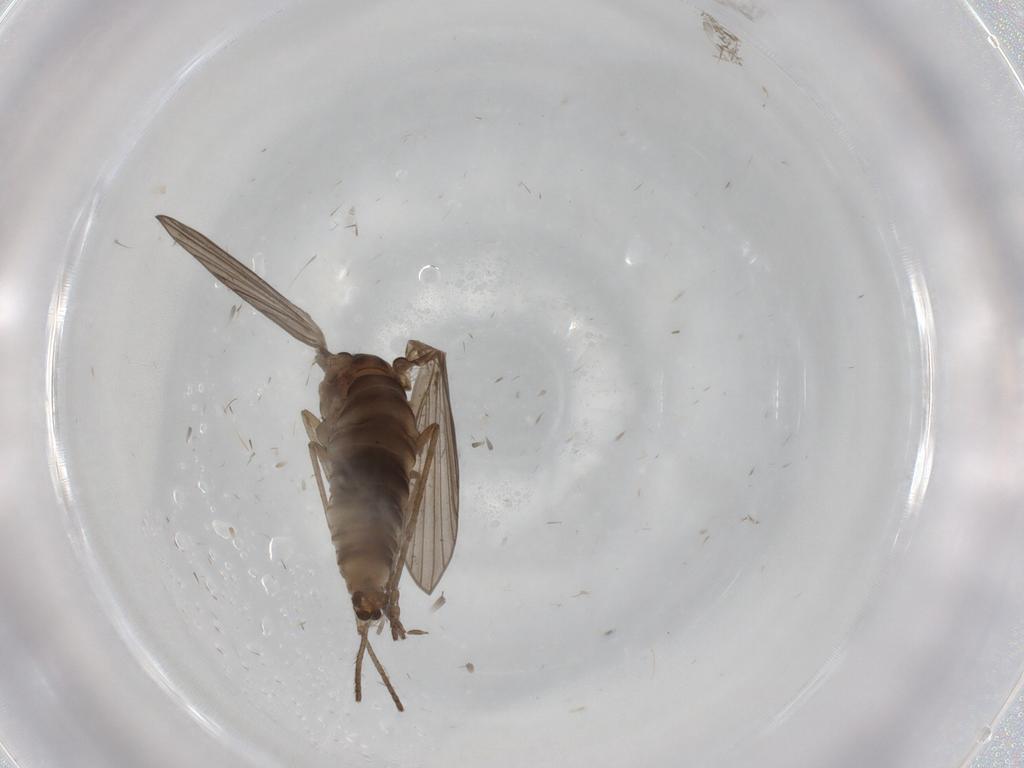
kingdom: Animalia
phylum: Arthropoda
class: Insecta
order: Diptera
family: Psychodidae
